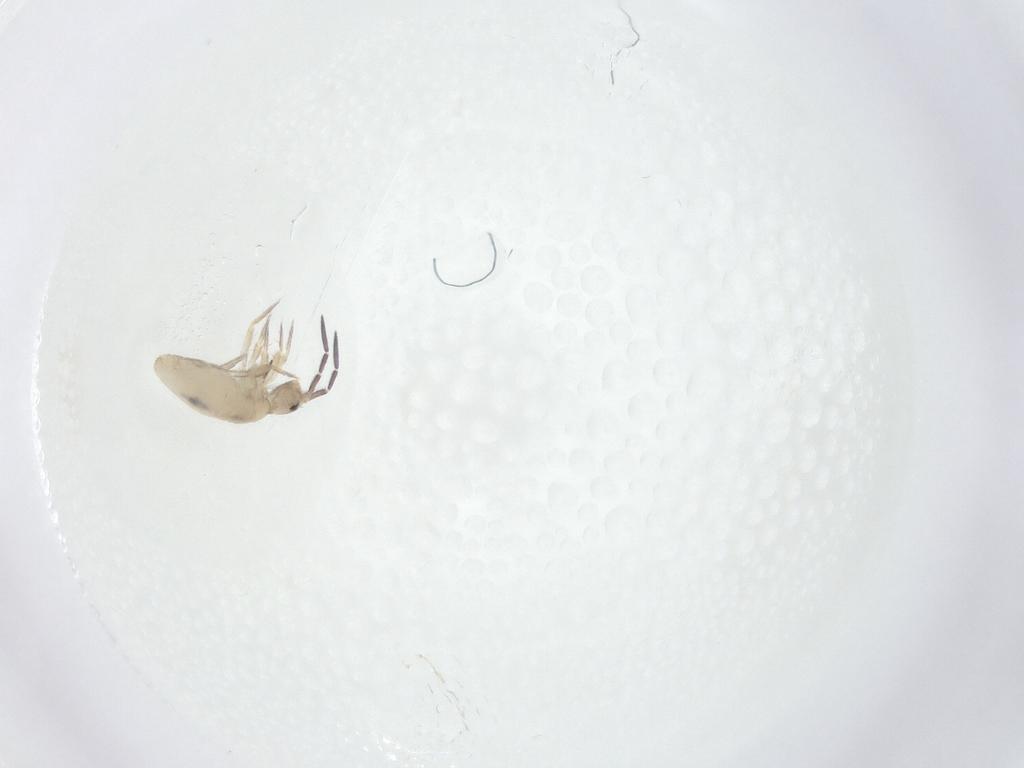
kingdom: Animalia
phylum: Arthropoda
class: Collembola
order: Entomobryomorpha
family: Entomobryidae
